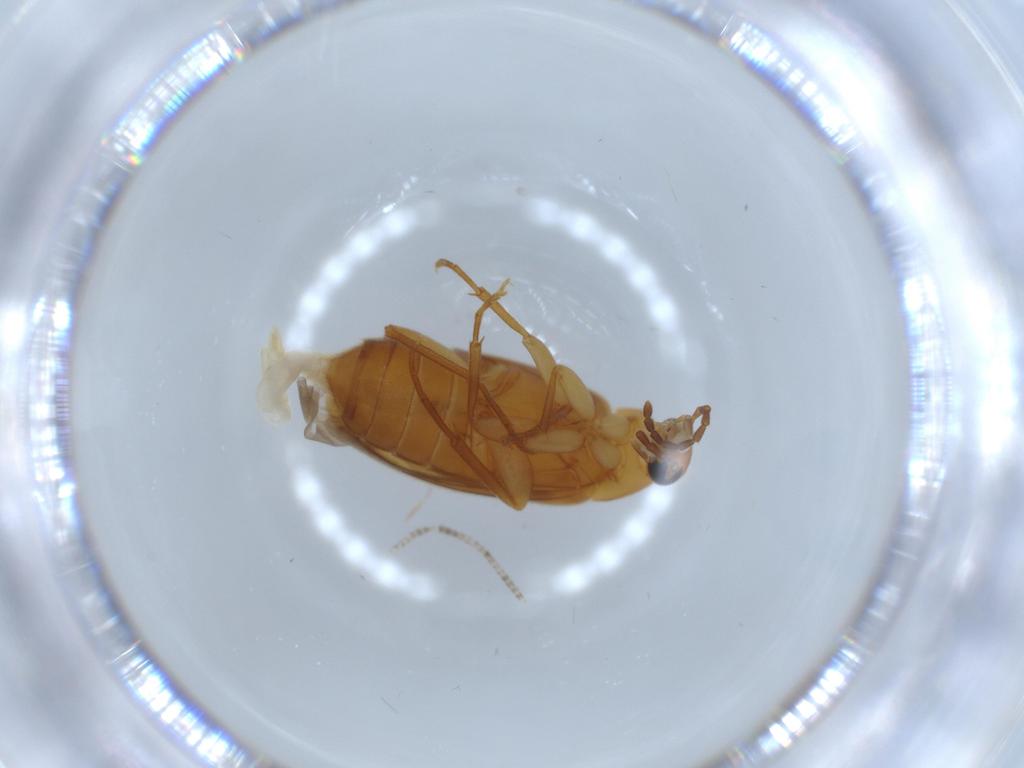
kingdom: Animalia
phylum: Arthropoda
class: Insecta
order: Coleoptera
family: Scraptiidae
